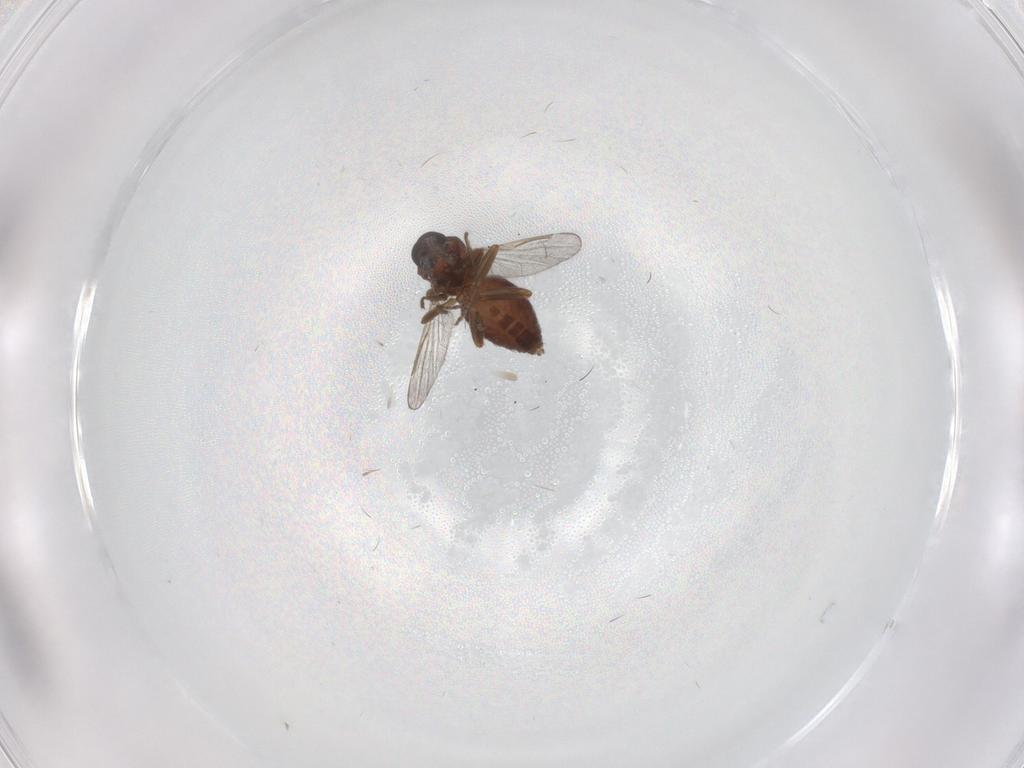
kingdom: Animalia
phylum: Arthropoda
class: Insecta
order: Diptera
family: Ceratopogonidae
